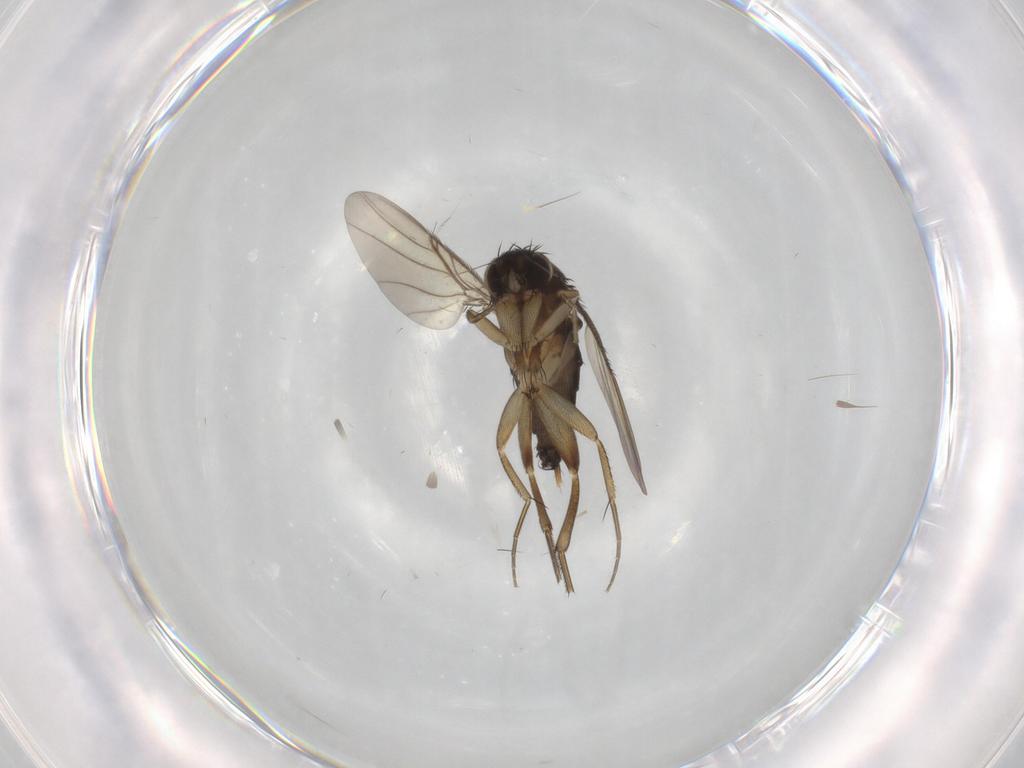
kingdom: Animalia
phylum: Arthropoda
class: Insecta
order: Diptera
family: Phoridae
